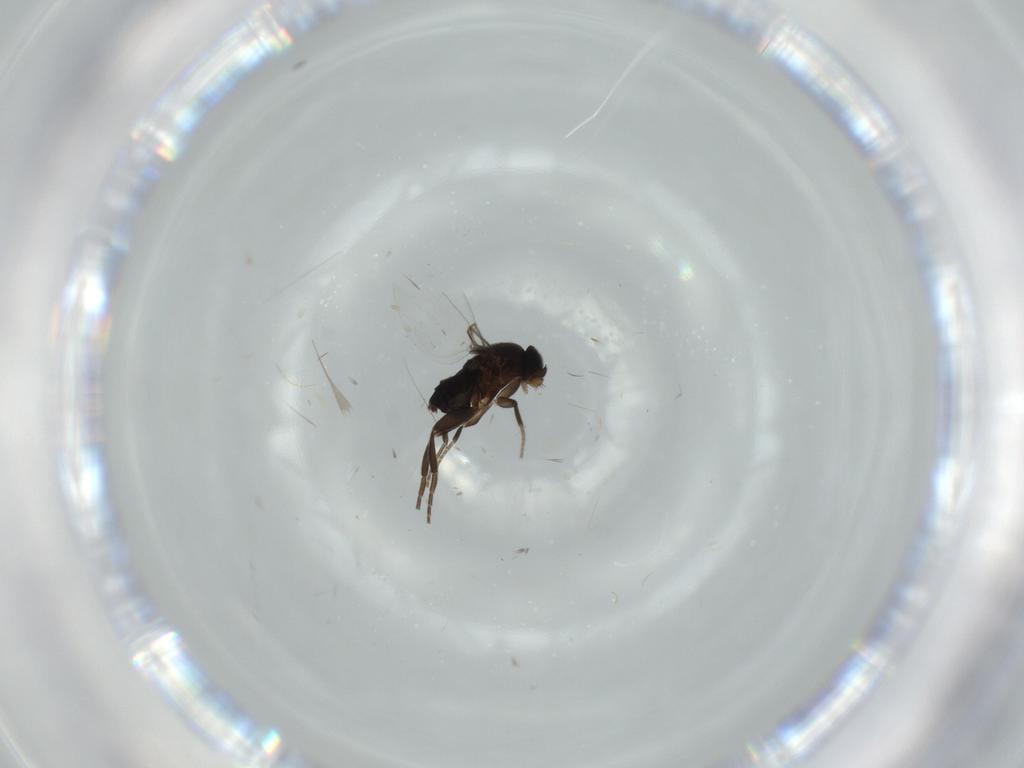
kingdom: Animalia
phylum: Arthropoda
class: Insecta
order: Diptera
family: Phoridae
